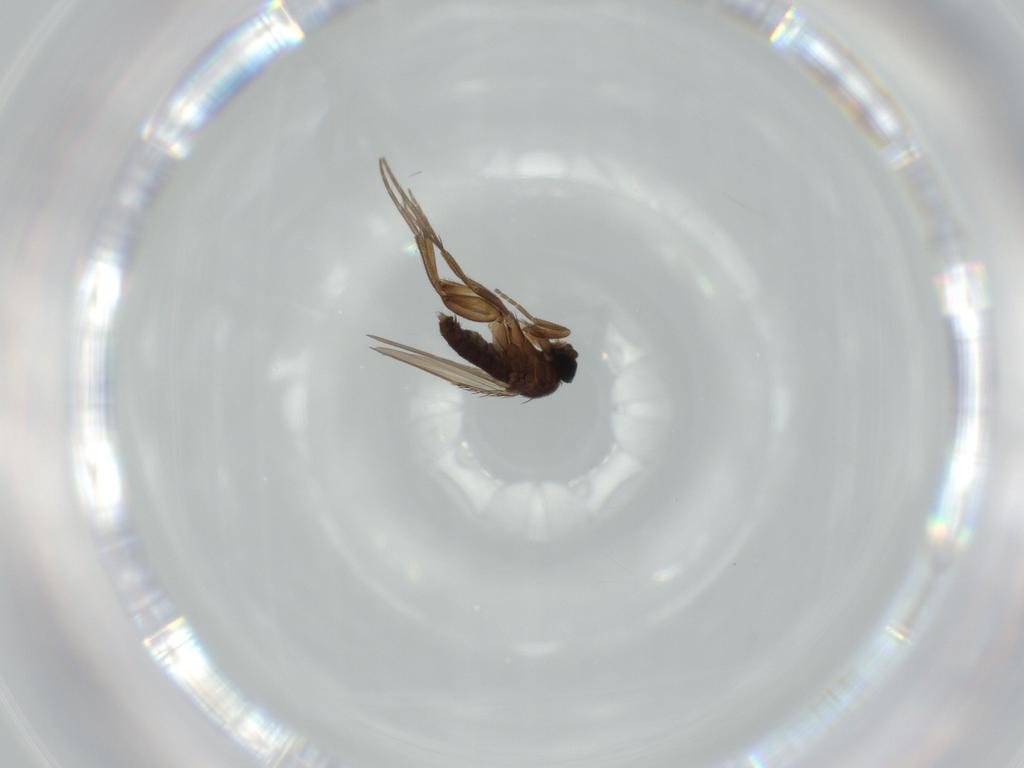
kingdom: Animalia
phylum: Arthropoda
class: Insecta
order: Diptera
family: Phoridae
